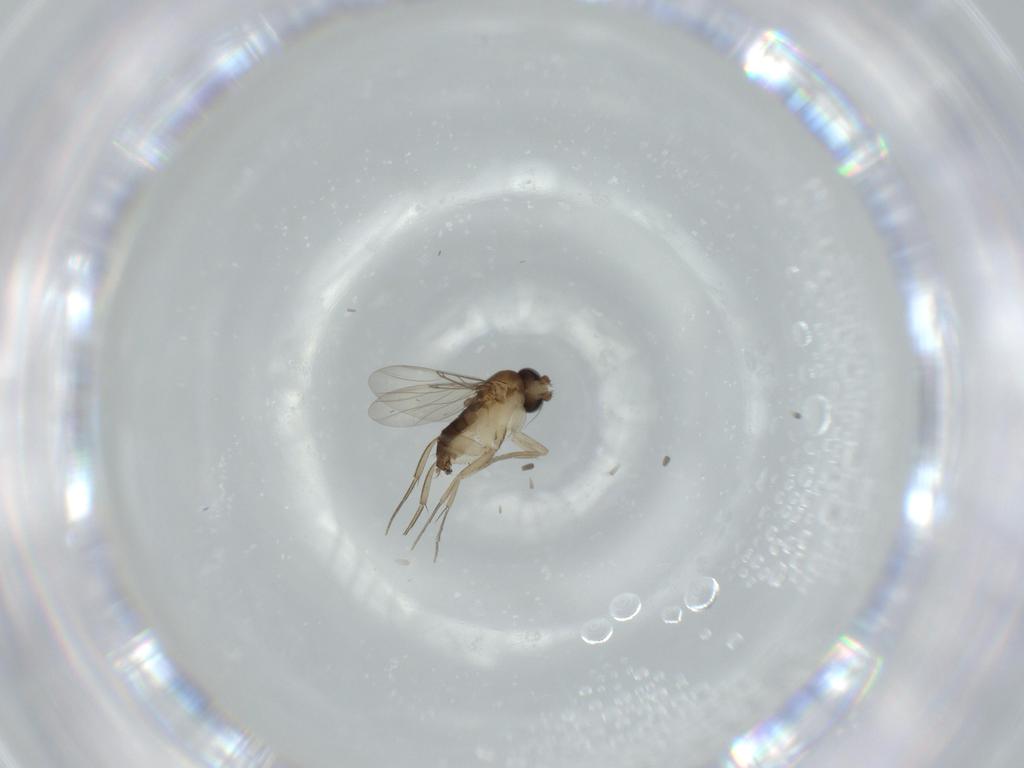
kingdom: Animalia
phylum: Arthropoda
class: Insecta
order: Diptera
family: Phoridae
